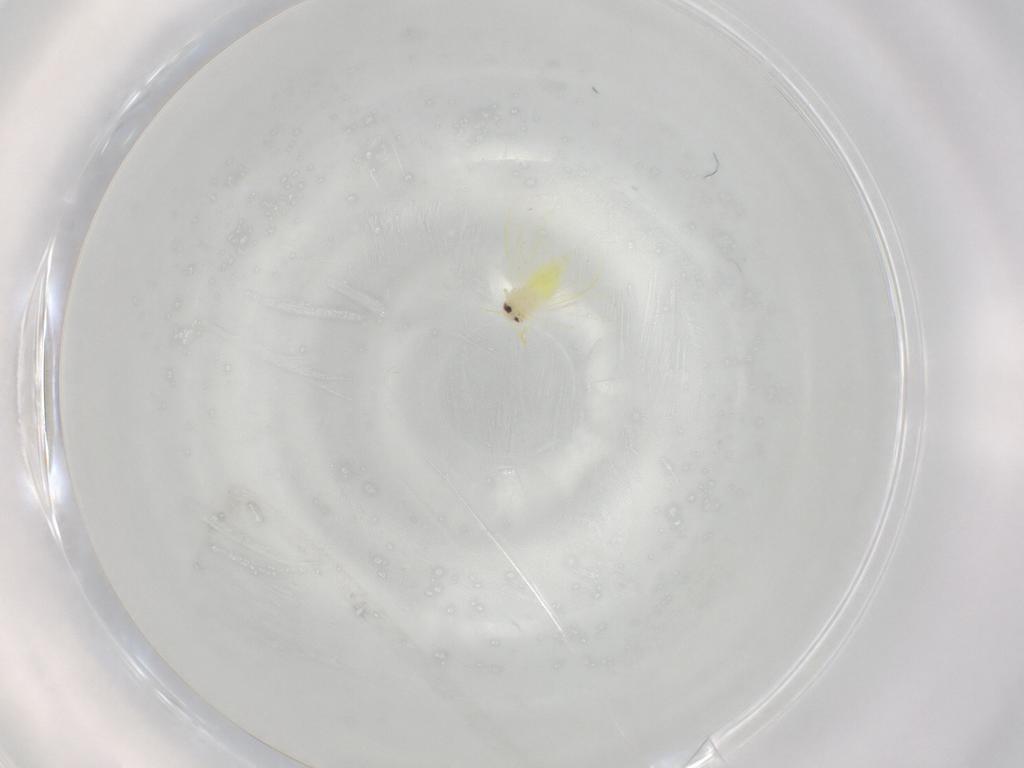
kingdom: Animalia
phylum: Arthropoda
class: Insecta
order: Hemiptera
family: Aleyrodidae
